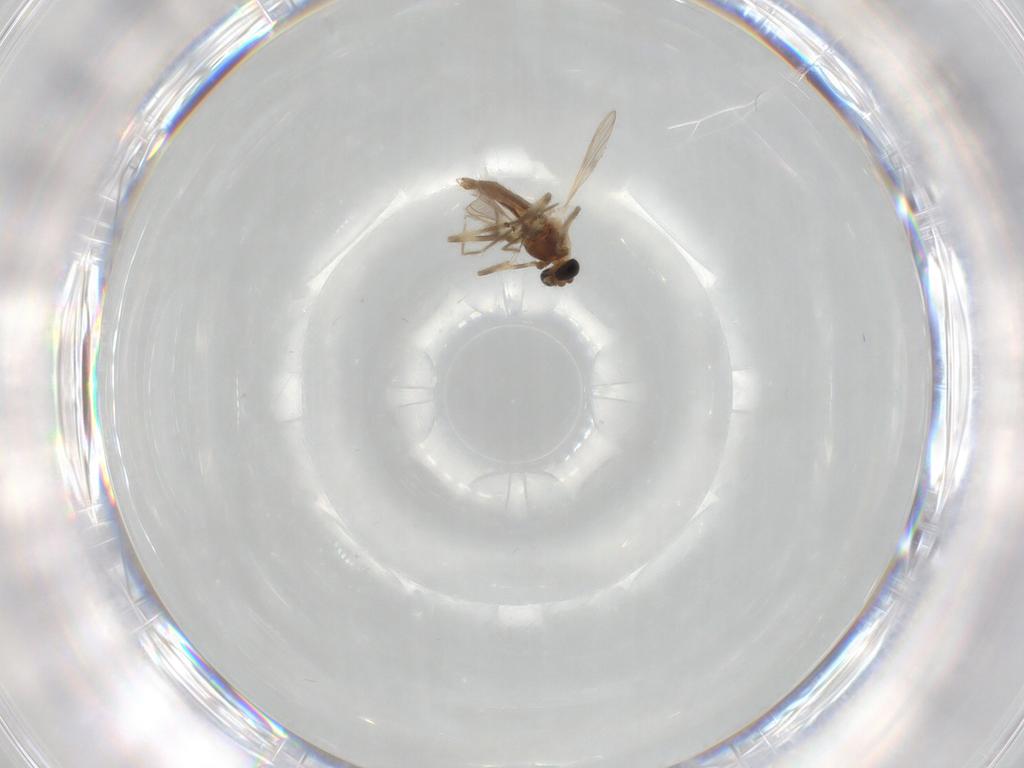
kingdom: Animalia
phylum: Arthropoda
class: Insecta
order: Diptera
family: Chironomidae
